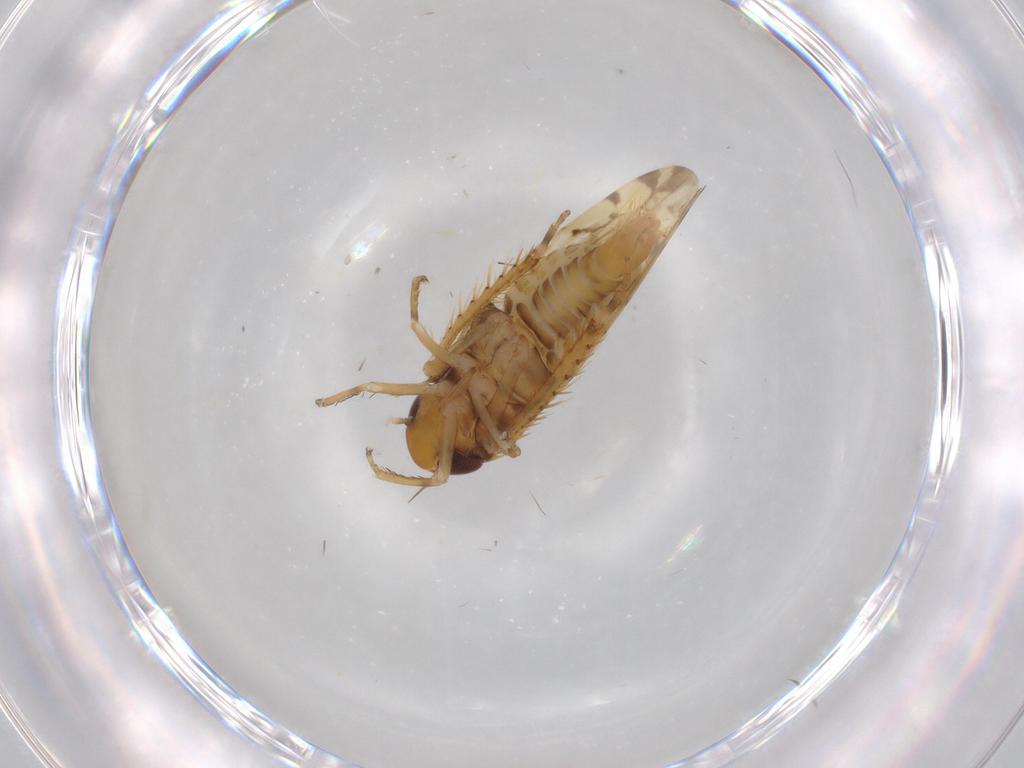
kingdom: Animalia
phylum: Arthropoda
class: Insecta
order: Hemiptera
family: Cicadellidae
